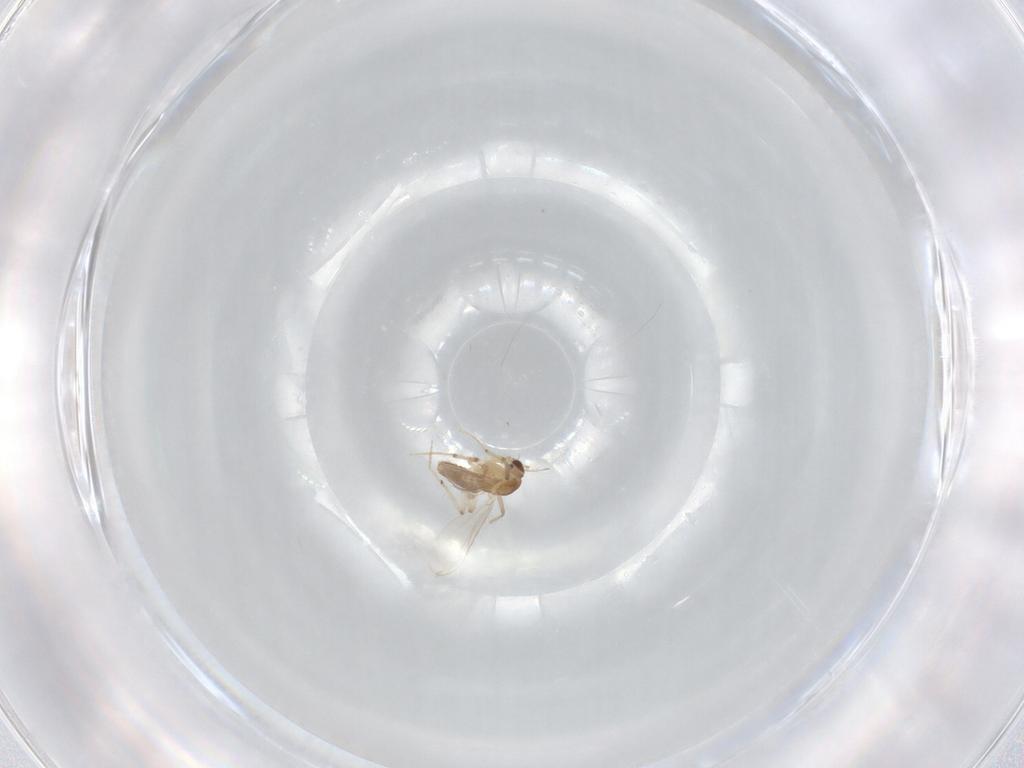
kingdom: Animalia
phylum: Arthropoda
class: Insecta
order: Diptera
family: Chironomidae
